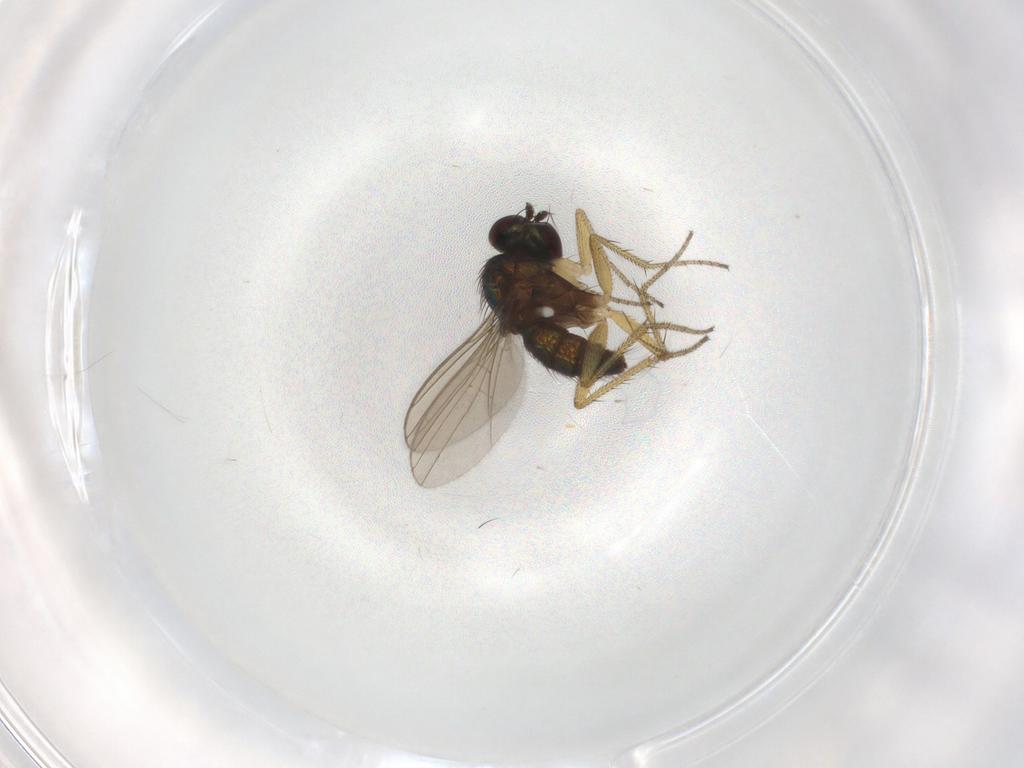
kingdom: Animalia
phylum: Arthropoda
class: Insecta
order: Diptera
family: Chironomidae
